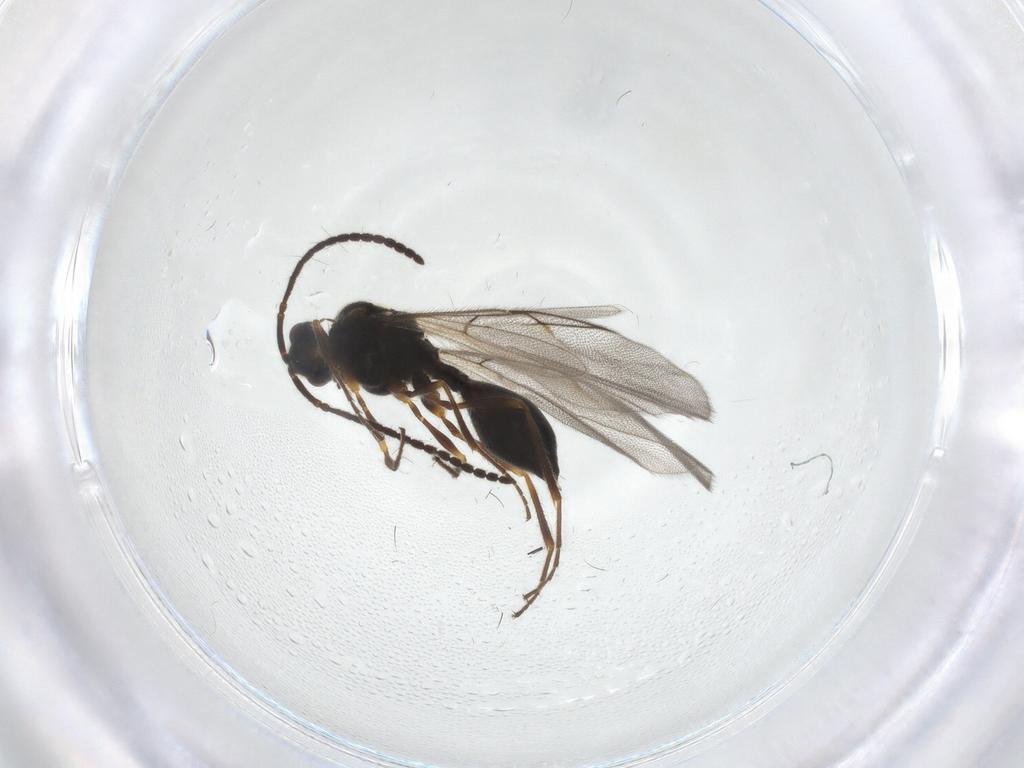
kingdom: Animalia
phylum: Arthropoda
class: Insecta
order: Hymenoptera
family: Diapriidae
